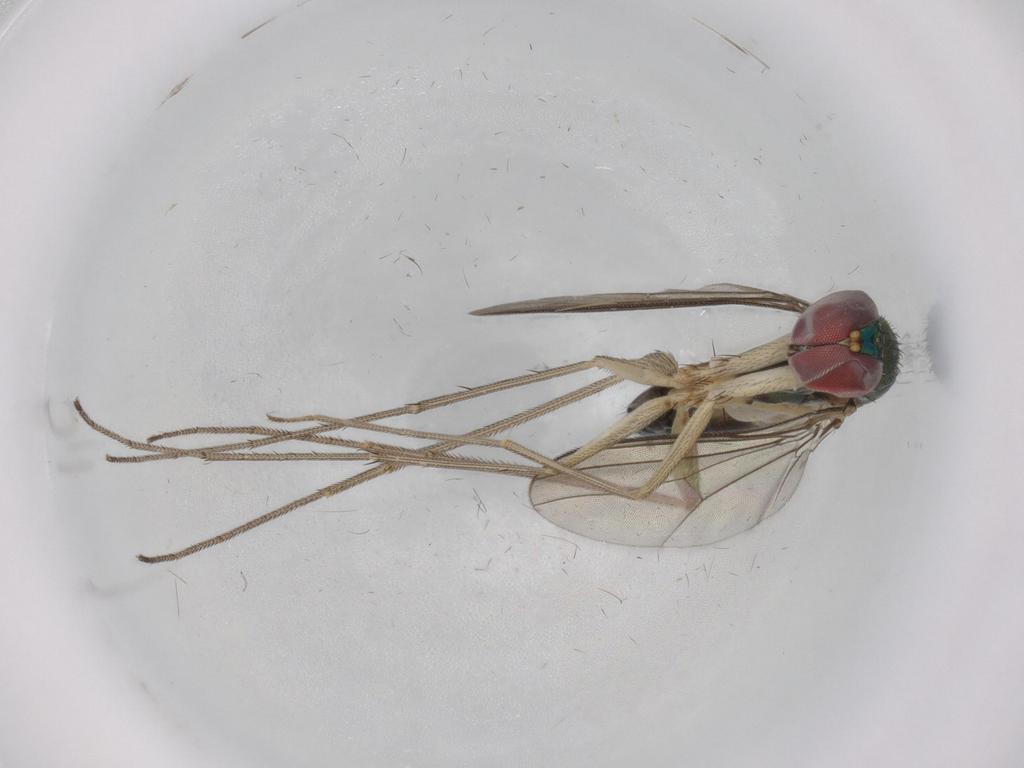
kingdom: Animalia
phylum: Arthropoda
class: Insecta
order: Diptera
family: Dolichopodidae
